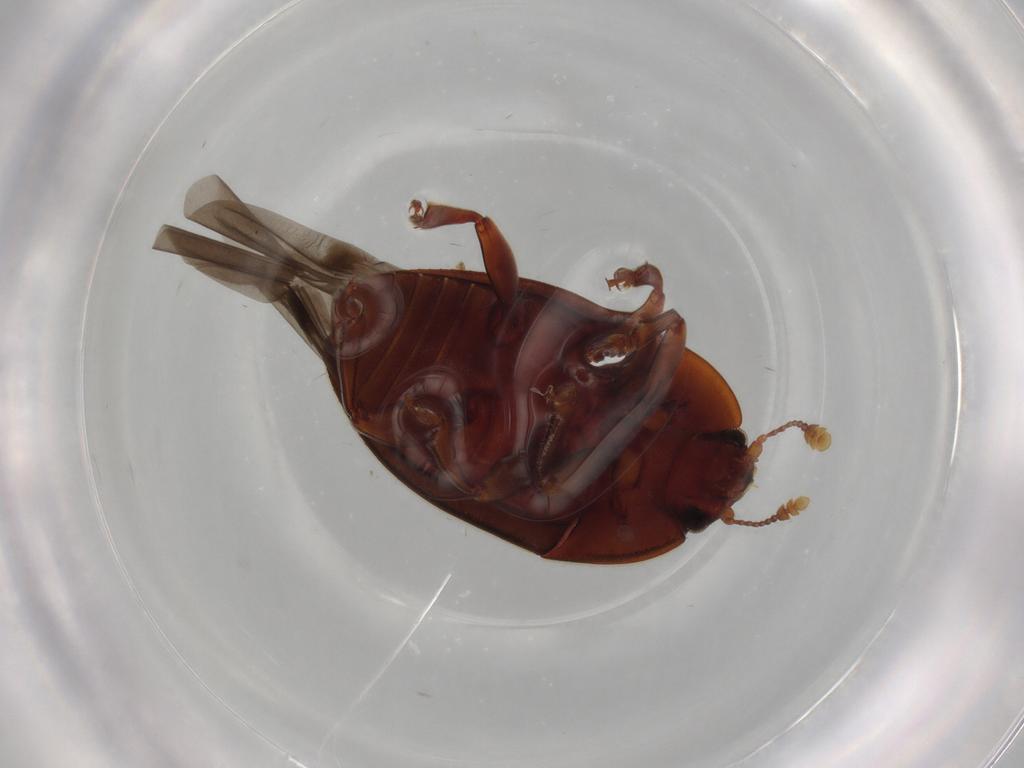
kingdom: Animalia
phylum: Arthropoda
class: Insecta
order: Coleoptera
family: Nitidulidae
